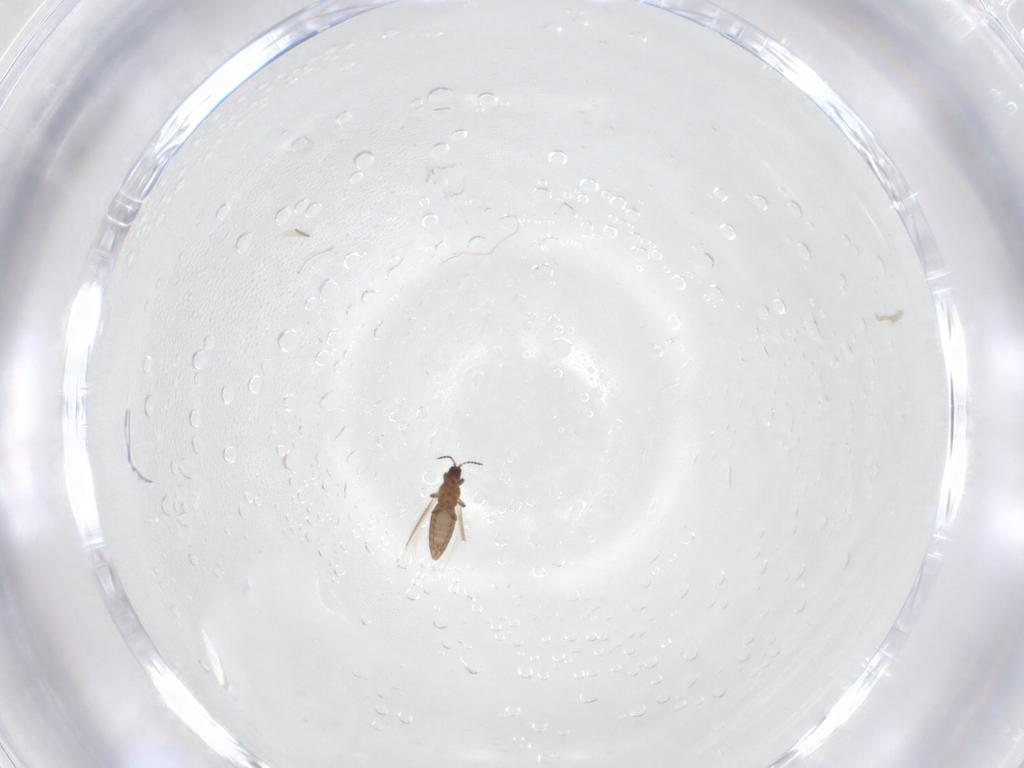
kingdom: Animalia
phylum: Arthropoda
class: Insecta
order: Thysanoptera
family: Heterothripidae
